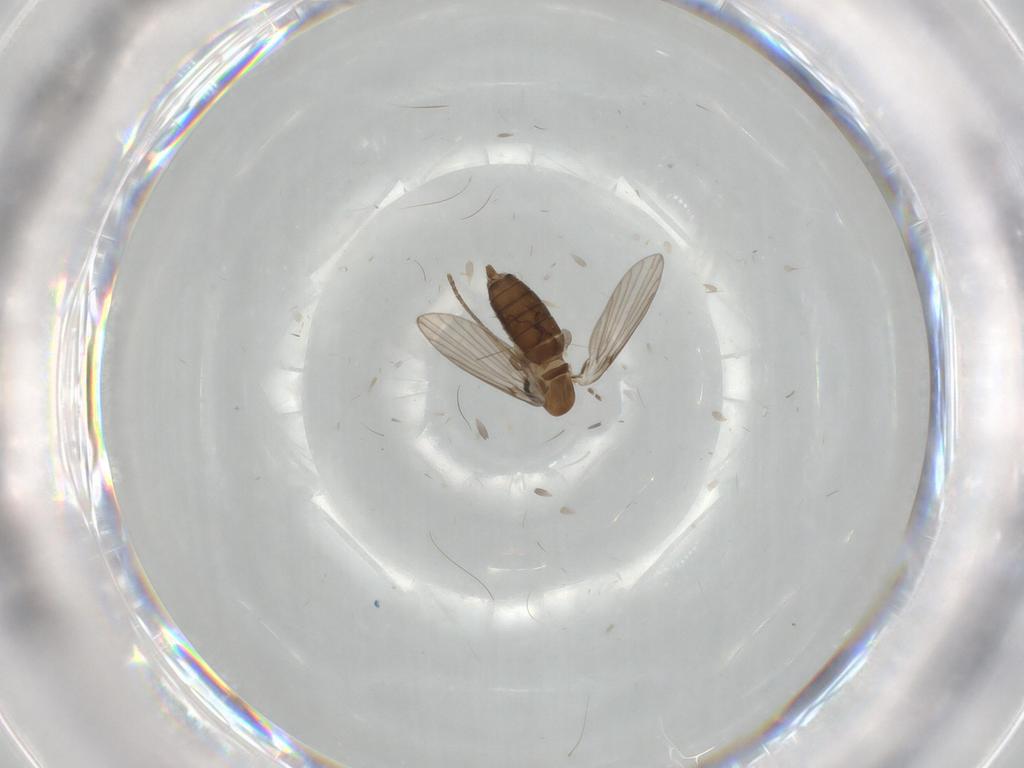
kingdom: Animalia
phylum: Arthropoda
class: Insecta
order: Diptera
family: Psychodidae
